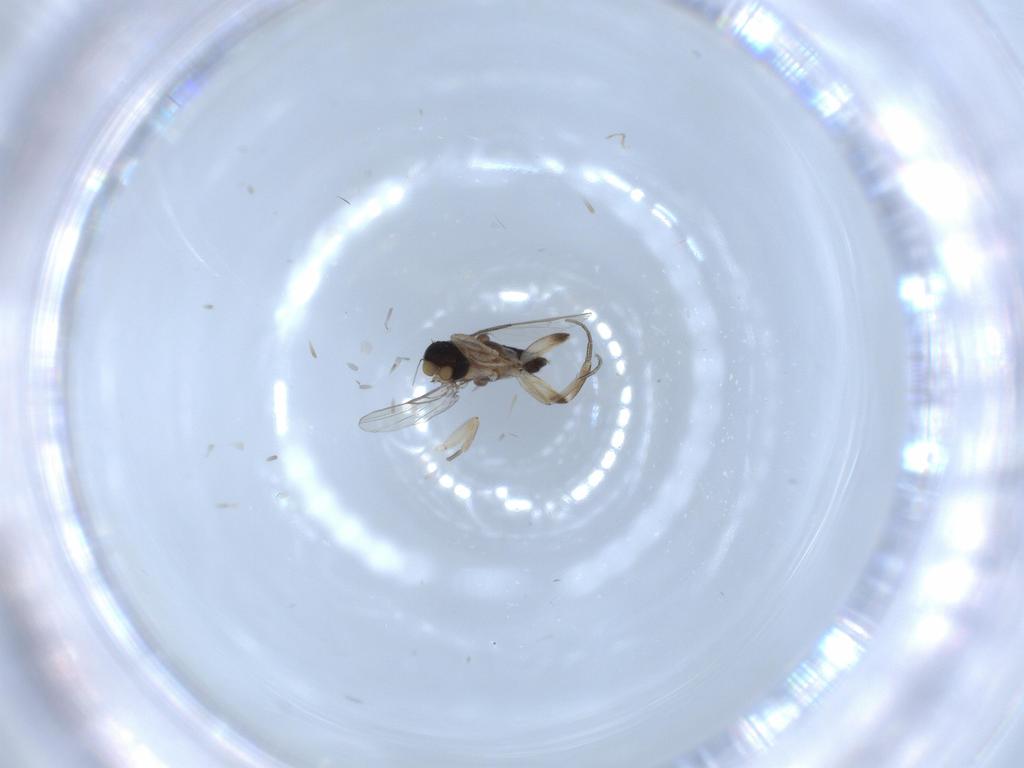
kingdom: Animalia
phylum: Arthropoda
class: Insecta
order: Diptera
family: Phoridae
